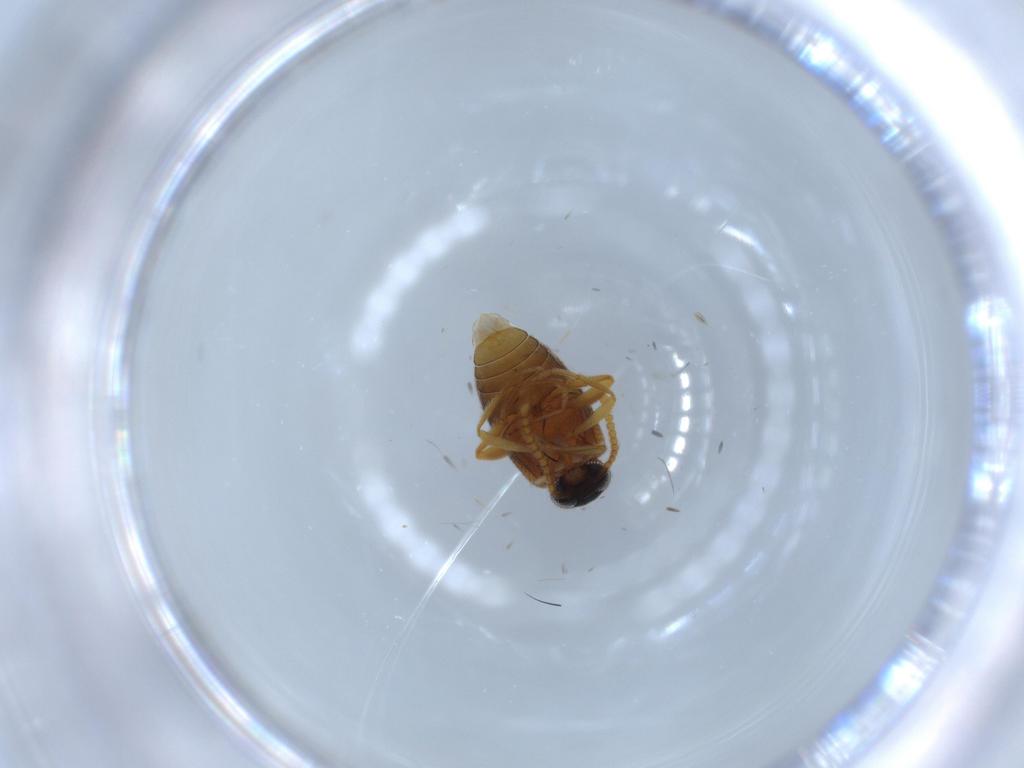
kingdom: Animalia
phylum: Arthropoda
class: Insecta
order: Coleoptera
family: Aderidae
